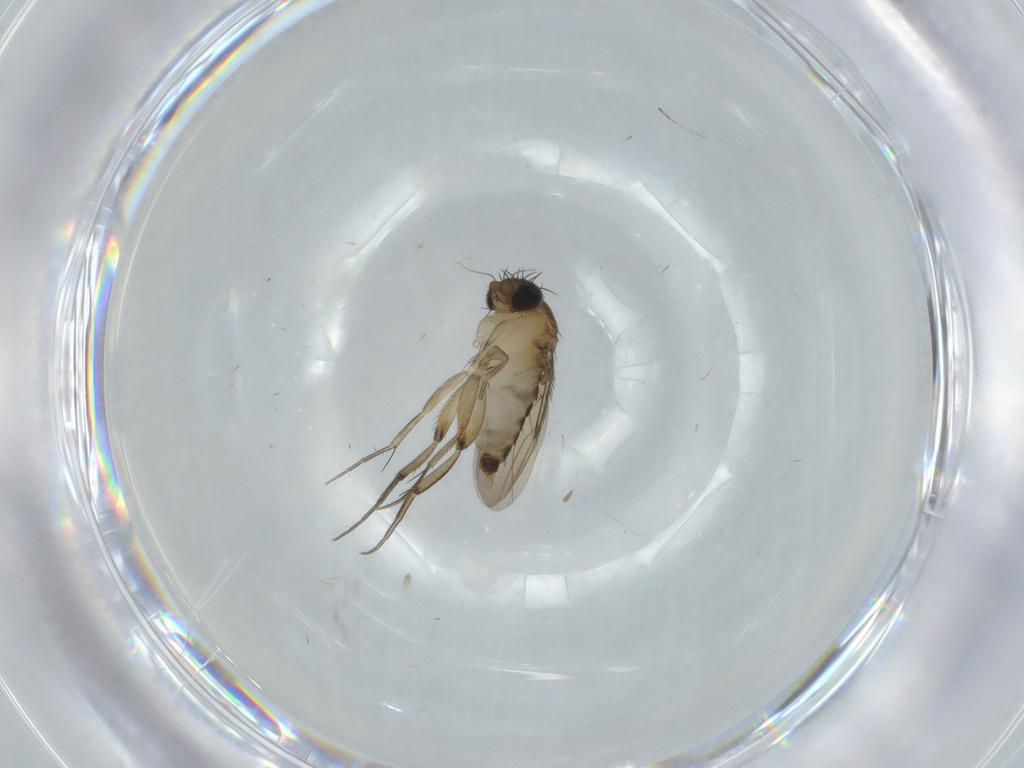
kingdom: Animalia
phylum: Arthropoda
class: Insecta
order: Diptera
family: Phoridae
